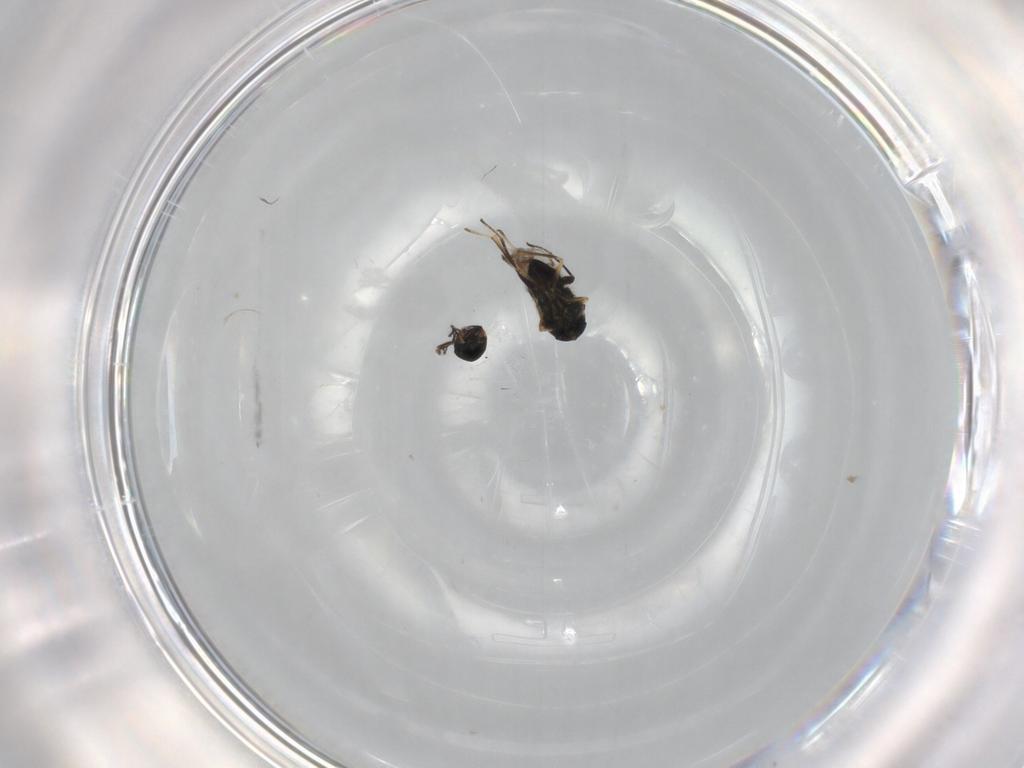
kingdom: Animalia
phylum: Arthropoda
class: Insecta
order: Hymenoptera
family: Encyrtidae
